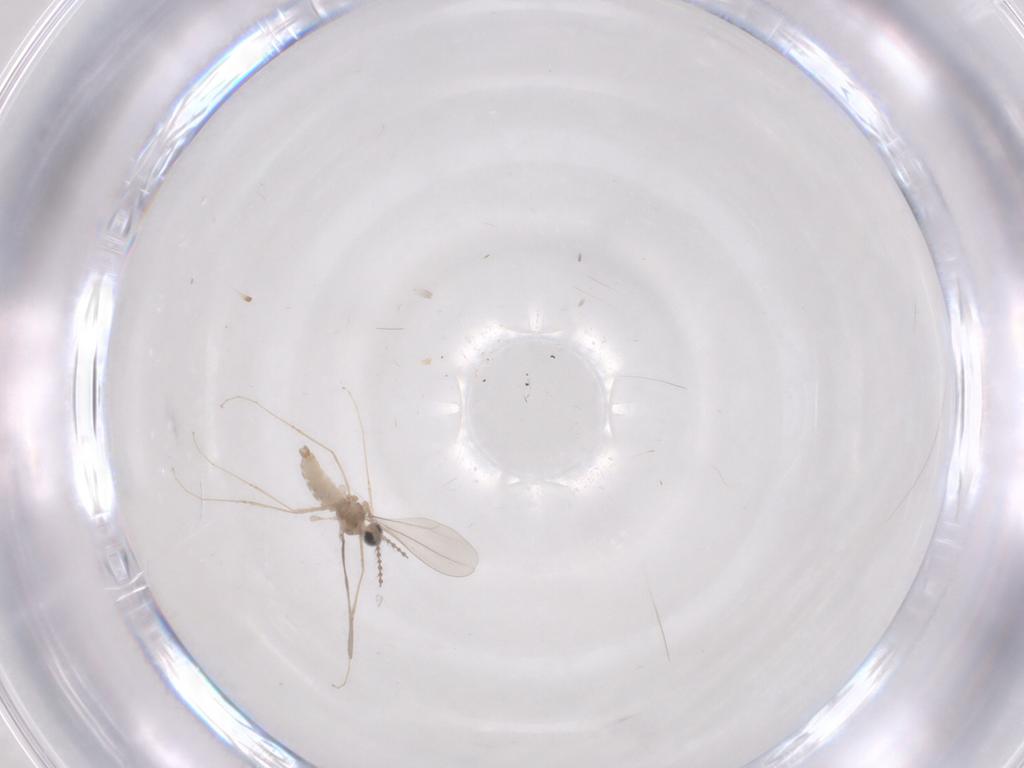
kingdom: Animalia
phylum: Arthropoda
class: Insecta
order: Diptera
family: Cecidomyiidae
